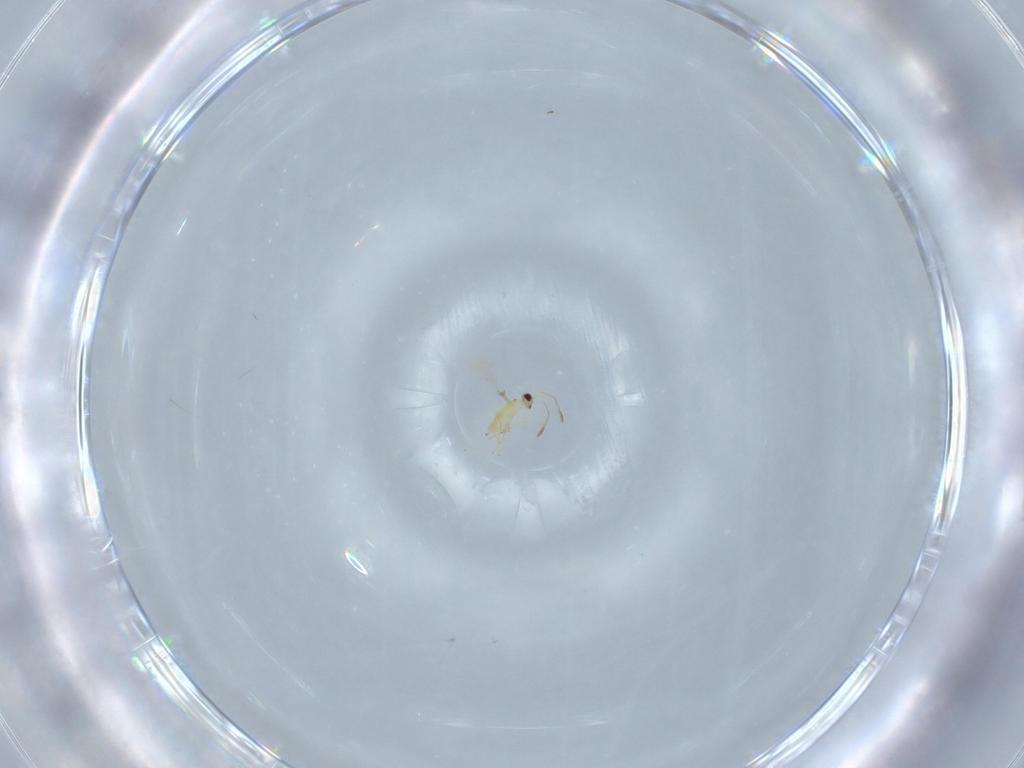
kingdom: Animalia
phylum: Arthropoda
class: Insecta
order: Hymenoptera
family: Mymaridae
